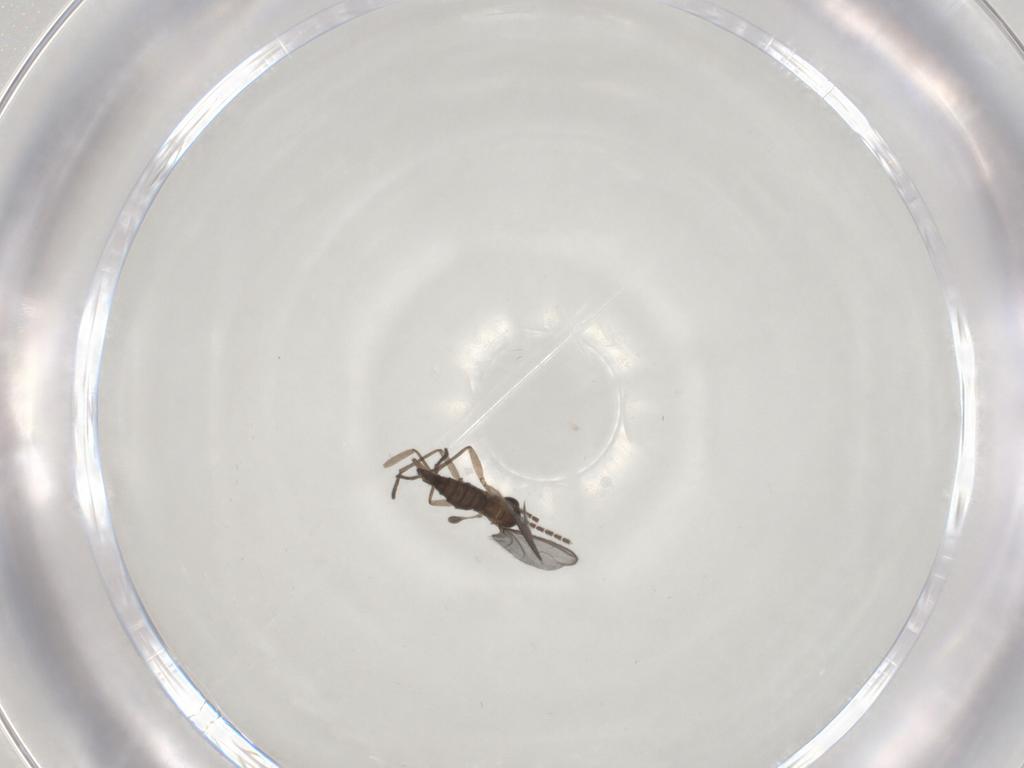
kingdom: Animalia
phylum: Arthropoda
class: Insecta
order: Diptera
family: Sciaridae
